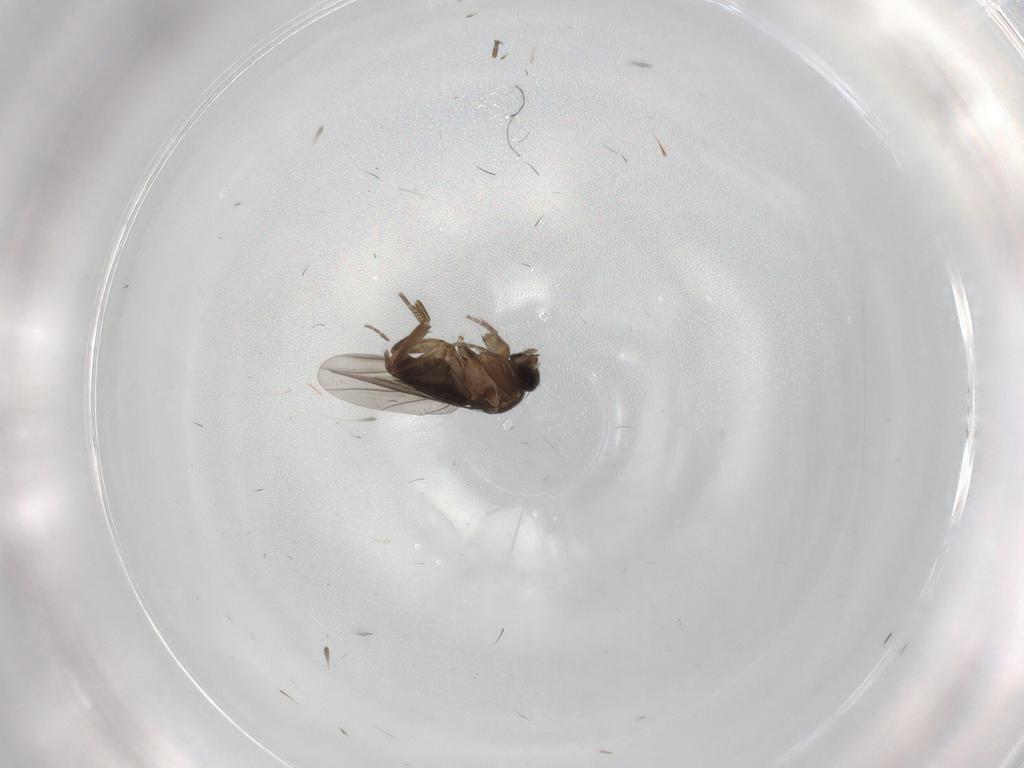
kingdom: Animalia
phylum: Arthropoda
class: Insecta
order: Diptera
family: Phoridae
